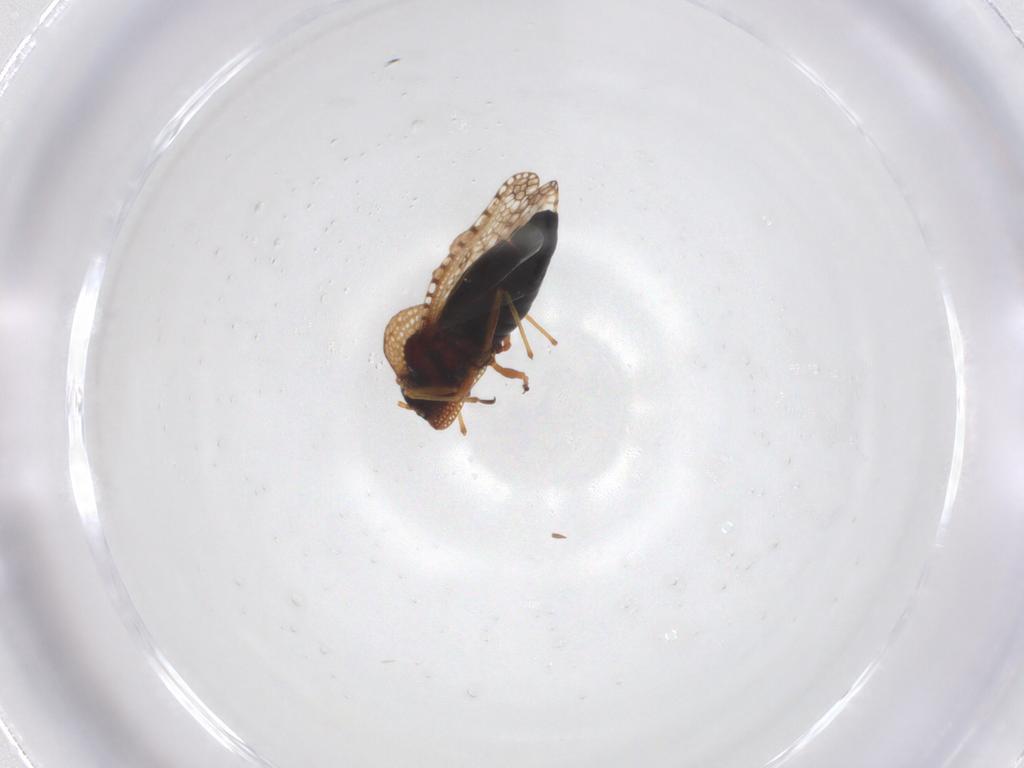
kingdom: Animalia
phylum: Arthropoda
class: Insecta
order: Hemiptera
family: Tingidae
